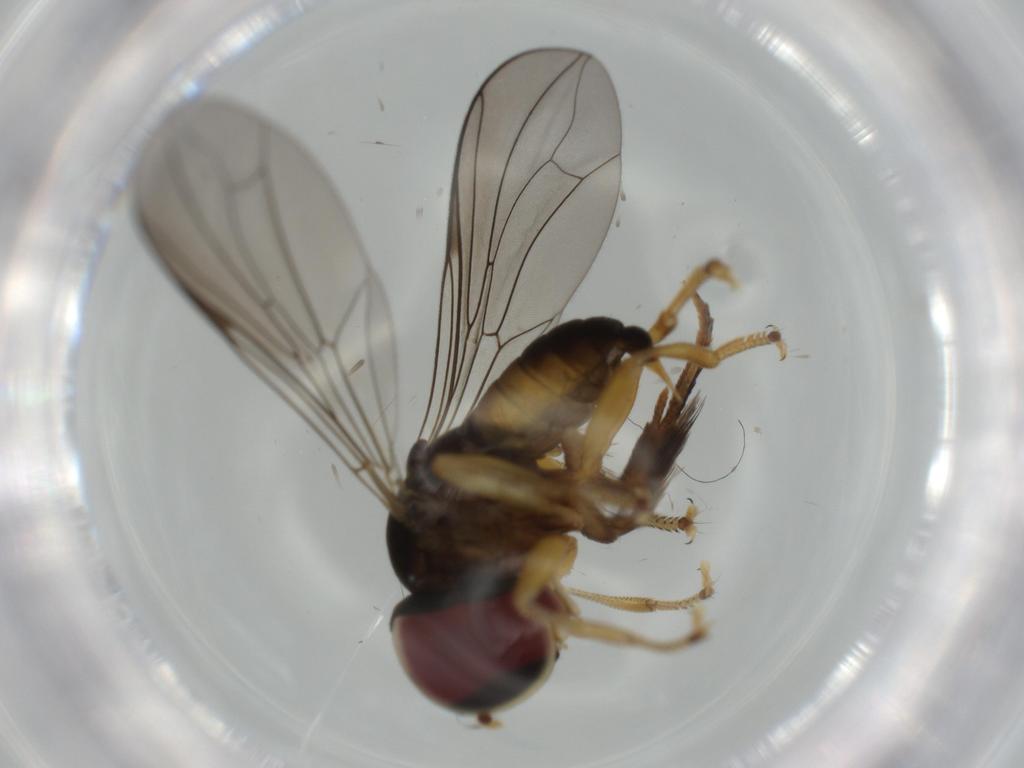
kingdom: Animalia
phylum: Arthropoda
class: Insecta
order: Diptera
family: Pipunculidae
